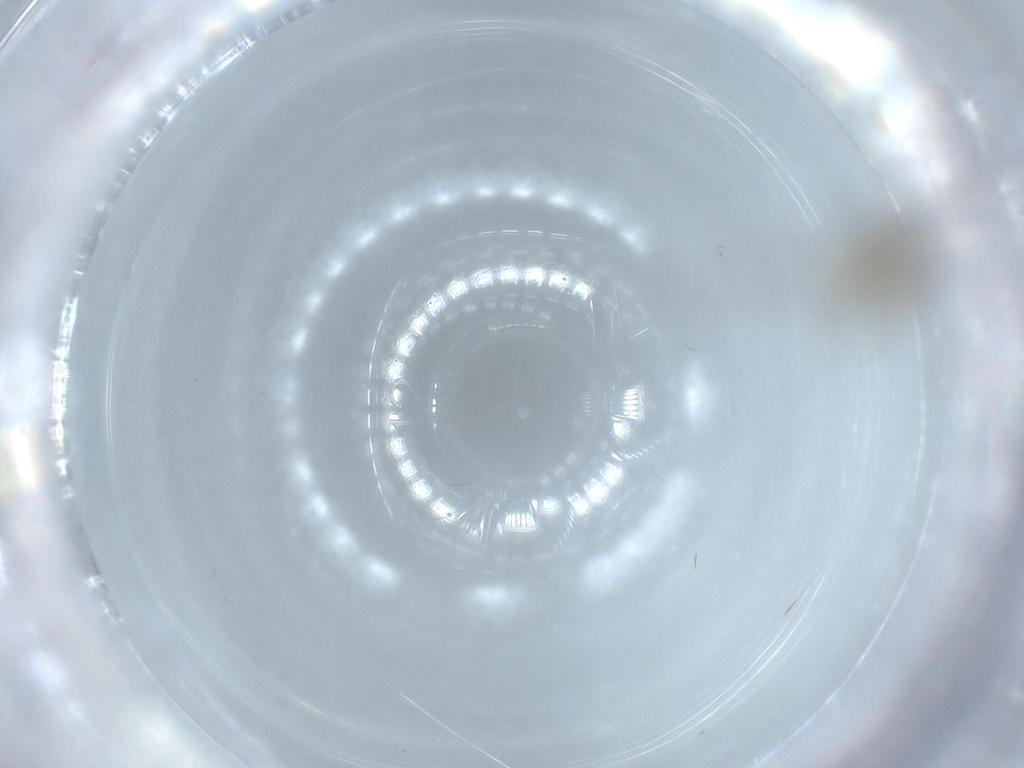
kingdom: Animalia
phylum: Arthropoda
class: Insecta
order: Diptera
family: Chironomidae
